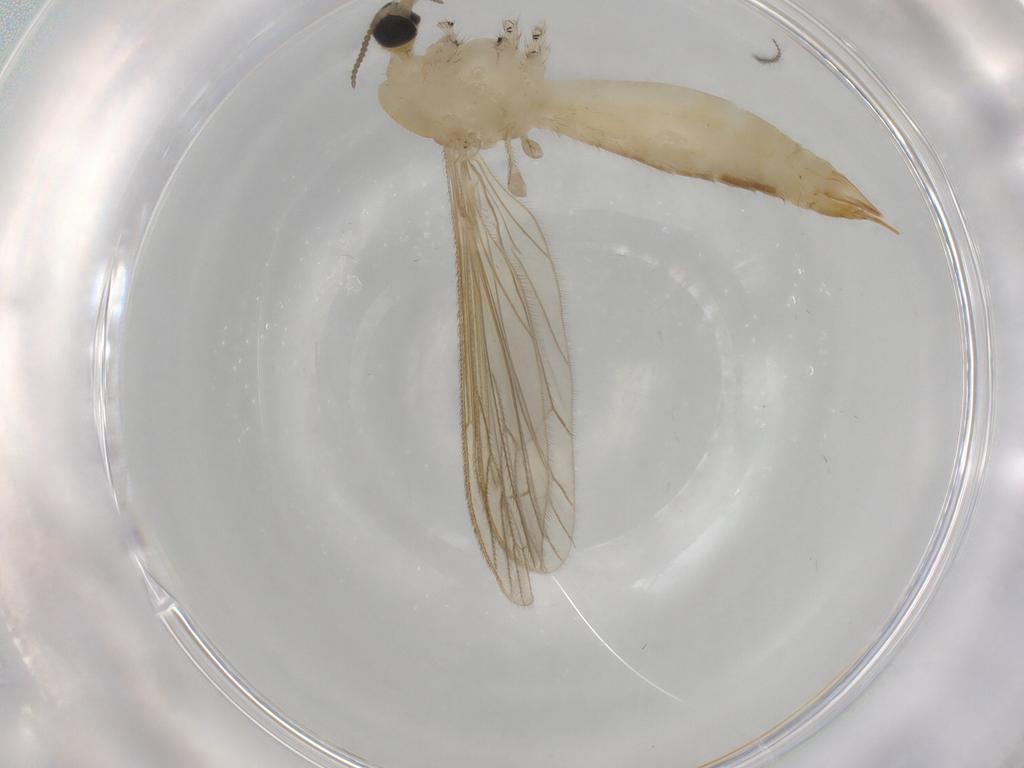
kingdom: Animalia
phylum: Arthropoda
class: Insecta
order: Diptera
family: Limoniidae
